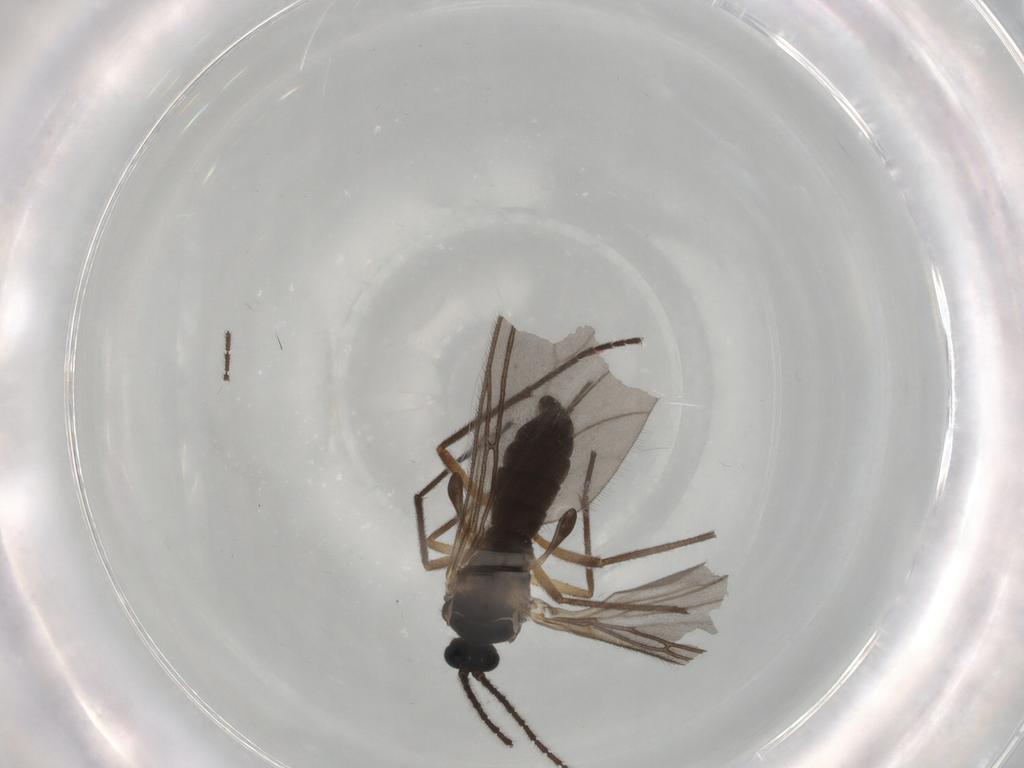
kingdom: Animalia
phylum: Arthropoda
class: Insecta
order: Diptera
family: Sciaridae
